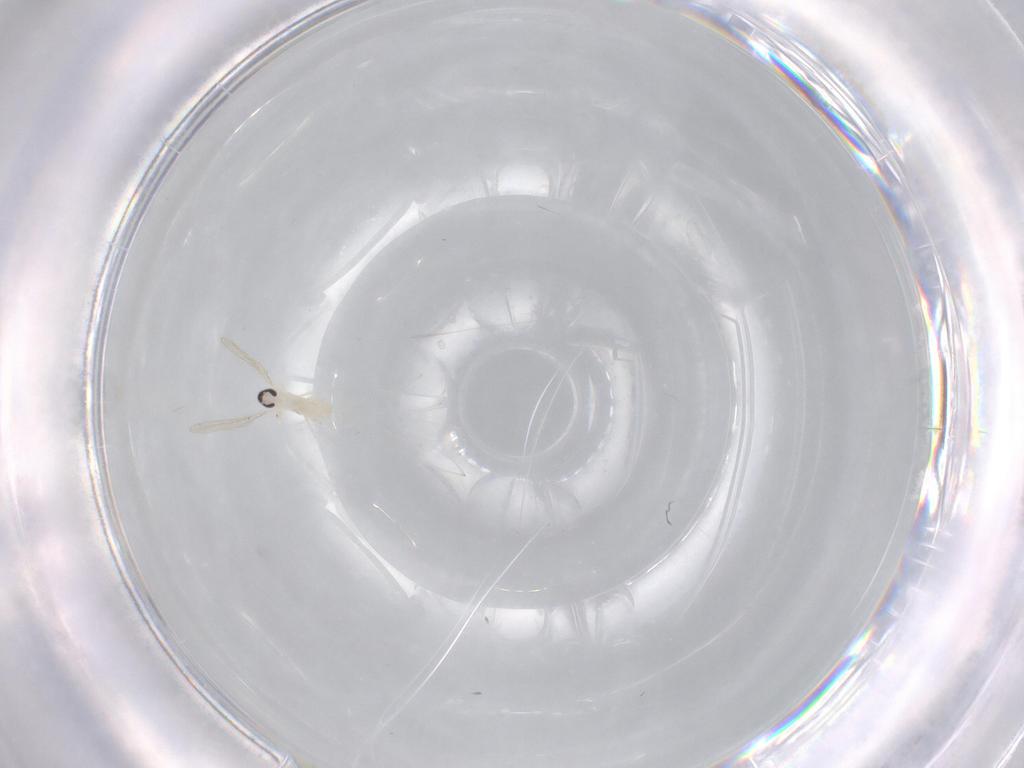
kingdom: Animalia
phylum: Arthropoda
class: Insecta
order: Diptera
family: Cecidomyiidae
